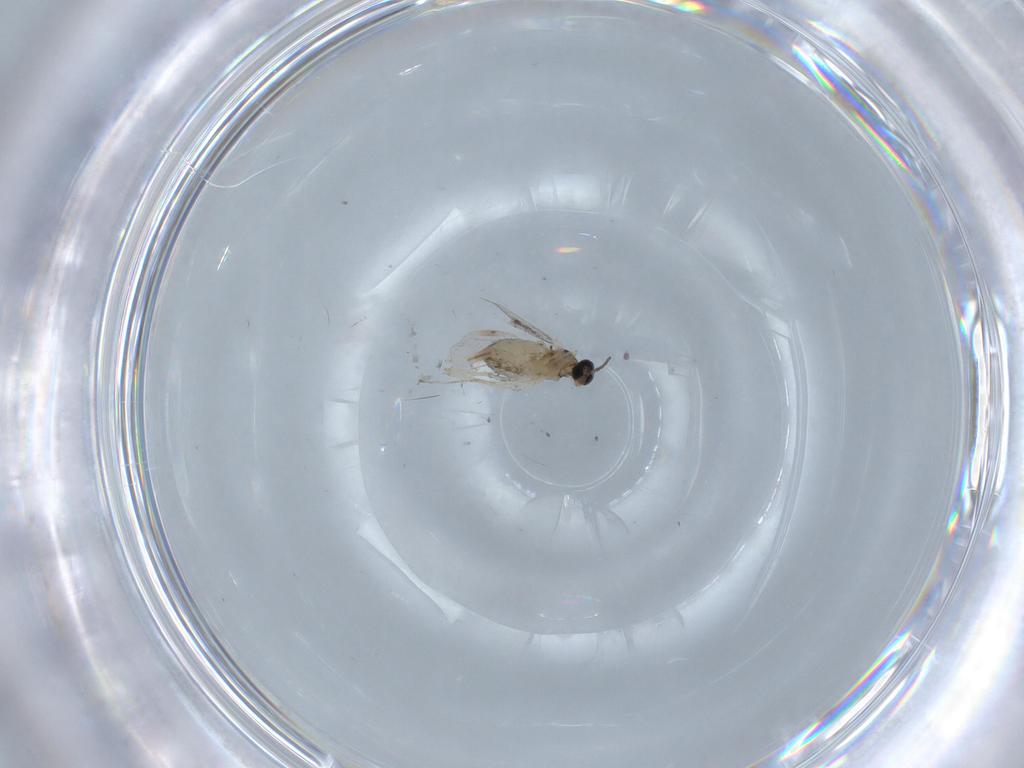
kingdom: Animalia
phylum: Arthropoda
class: Insecta
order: Diptera
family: Cecidomyiidae
